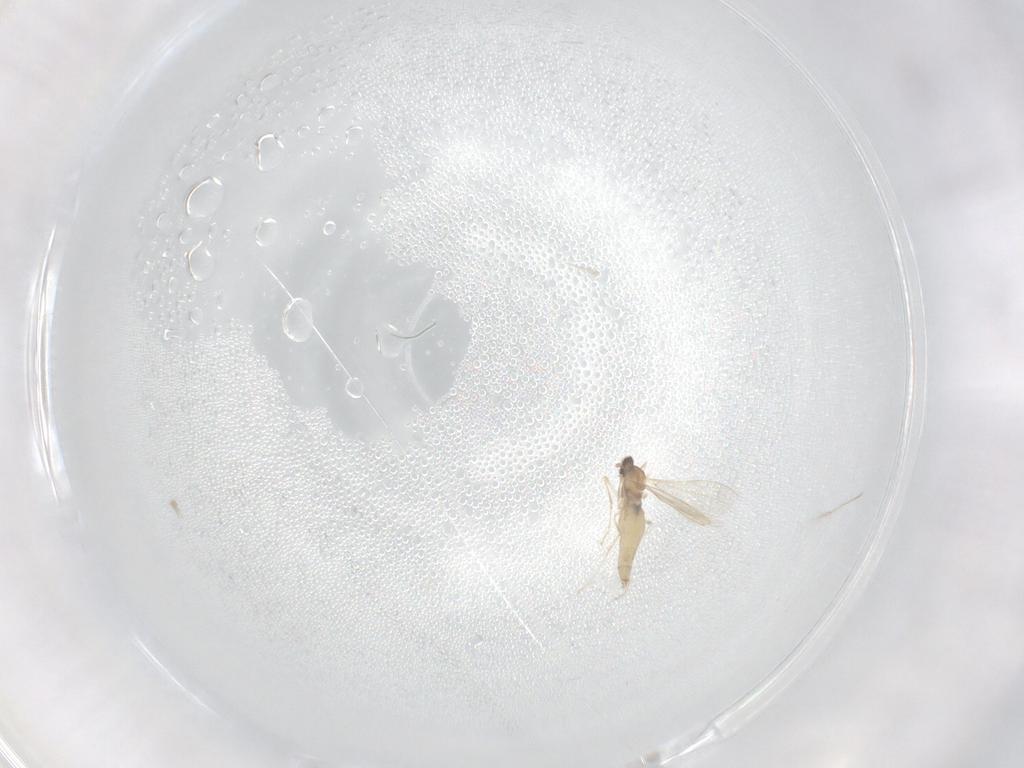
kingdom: Animalia
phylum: Arthropoda
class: Insecta
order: Diptera
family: Cecidomyiidae
